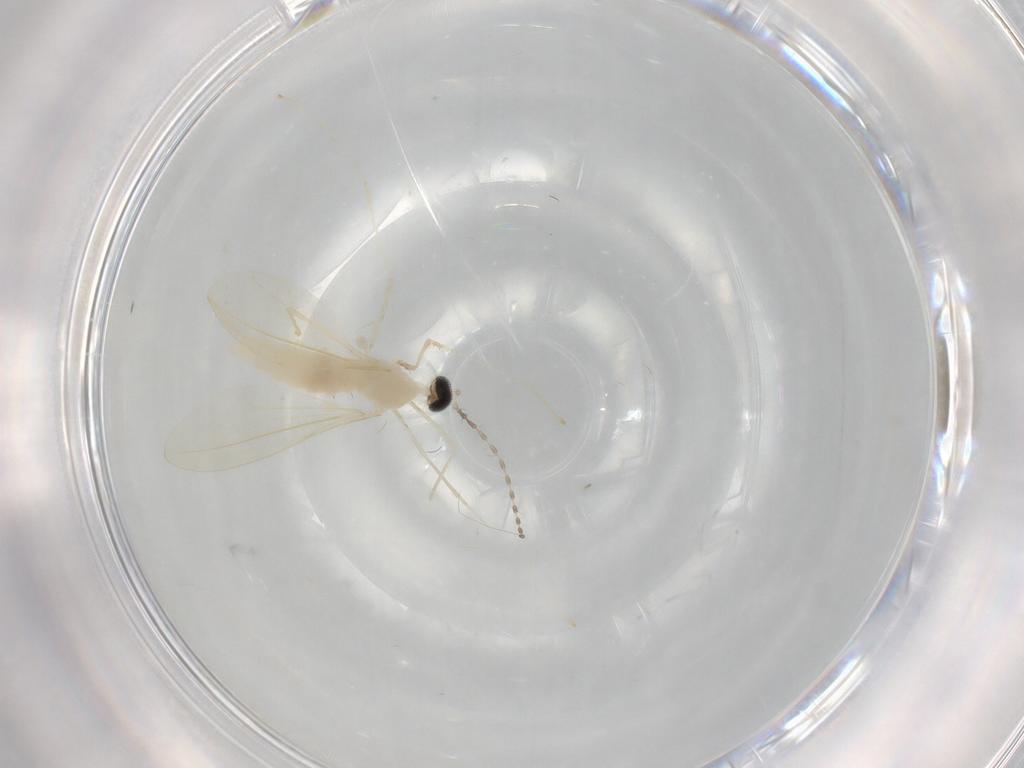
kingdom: Animalia
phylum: Arthropoda
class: Insecta
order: Diptera
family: Cecidomyiidae
